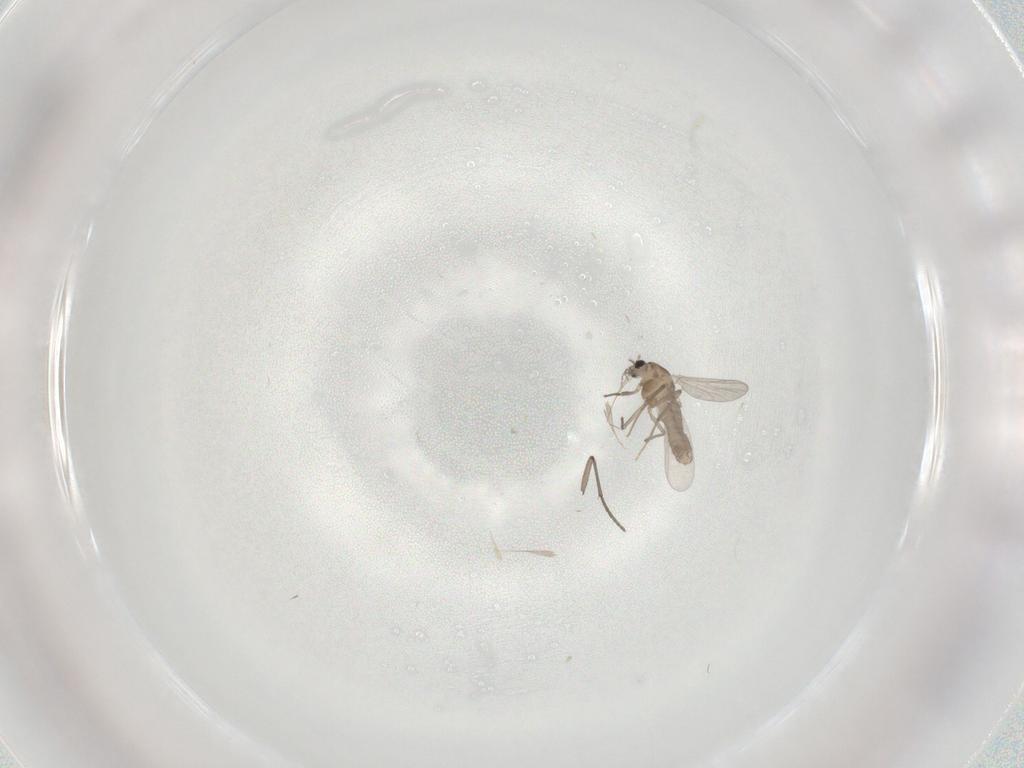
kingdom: Animalia
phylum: Arthropoda
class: Insecta
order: Diptera
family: Chironomidae
